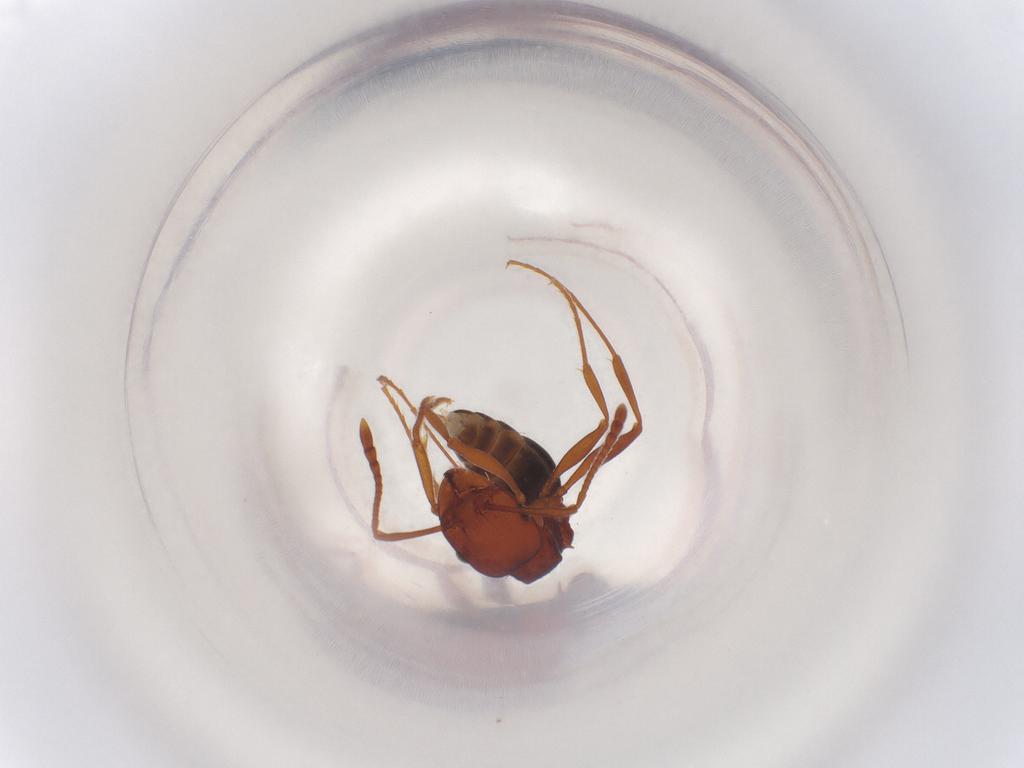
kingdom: Animalia
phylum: Arthropoda
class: Insecta
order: Hymenoptera
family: Formicidae
